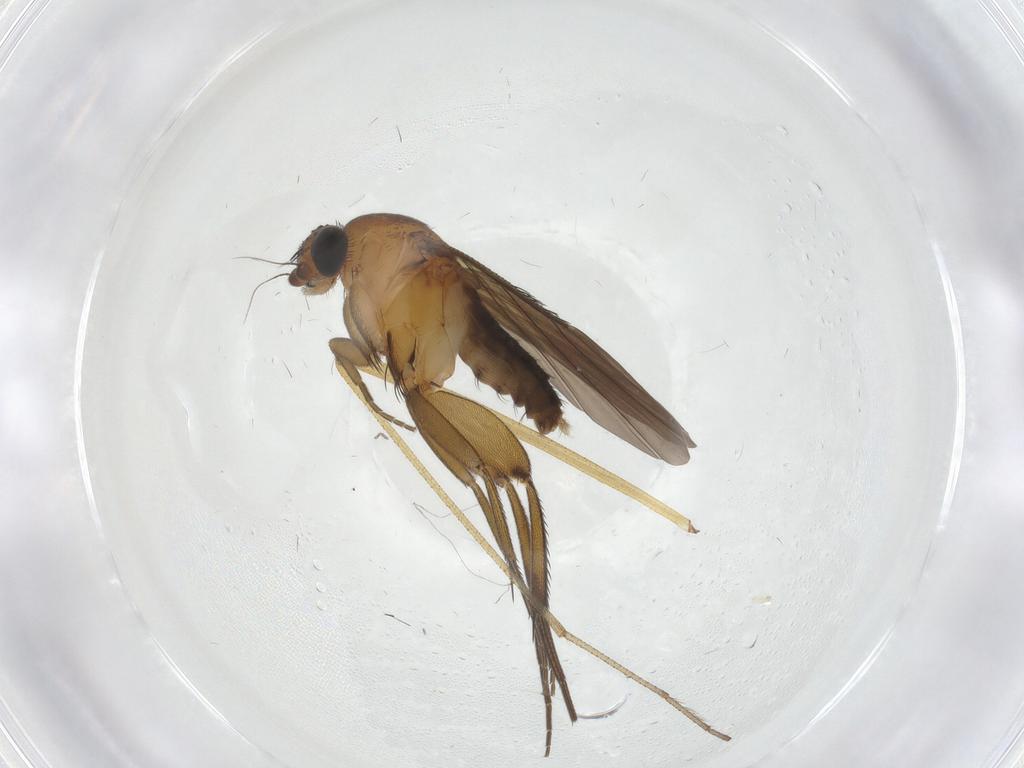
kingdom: Animalia
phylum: Arthropoda
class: Insecta
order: Diptera
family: Phoridae
